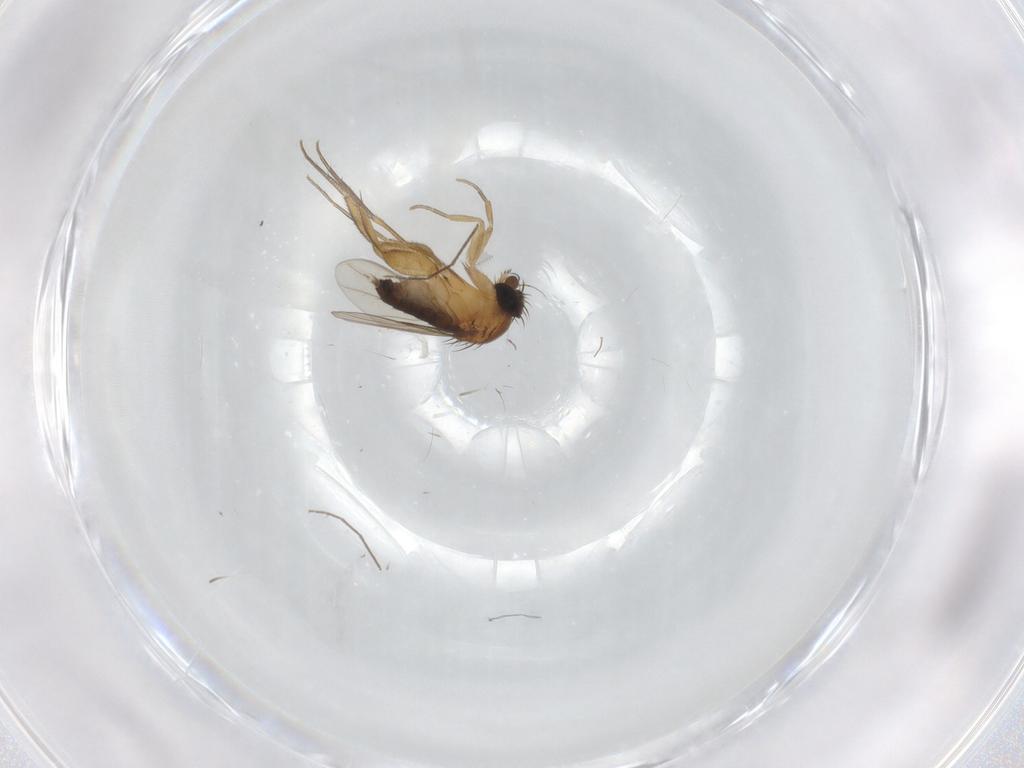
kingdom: Animalia
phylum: Arthropoda
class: Insecta
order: Diptera
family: Phoridae
